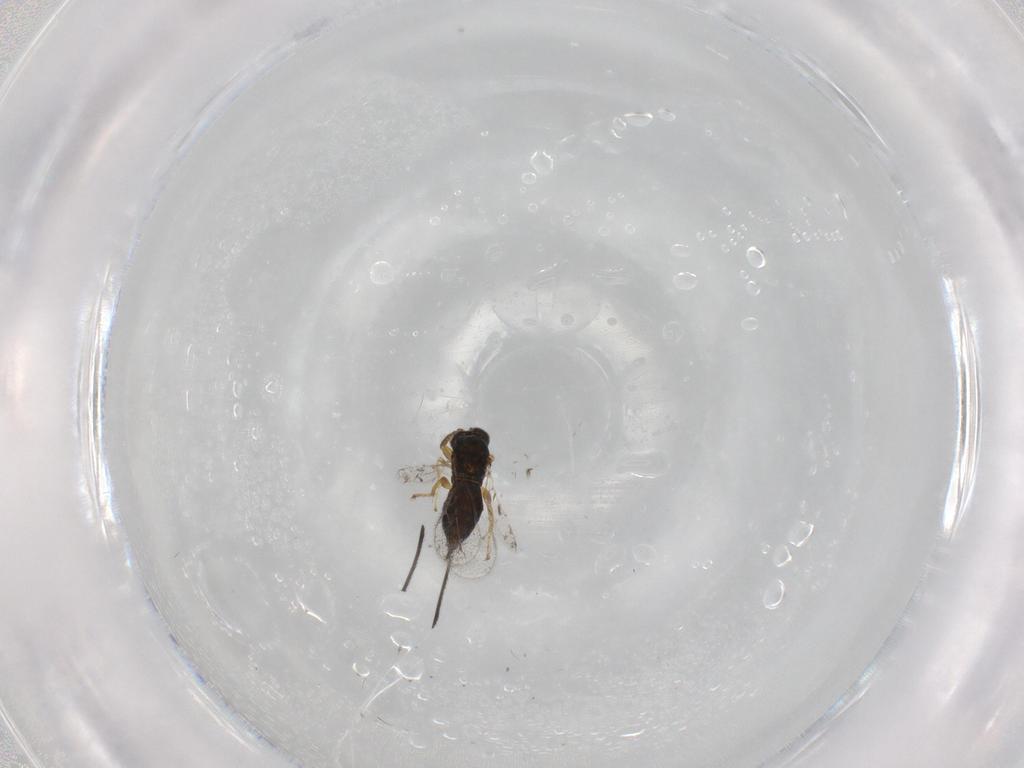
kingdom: Animalia
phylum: Arthropoda
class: Insecta
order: Hymenoptera
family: Torymidae
